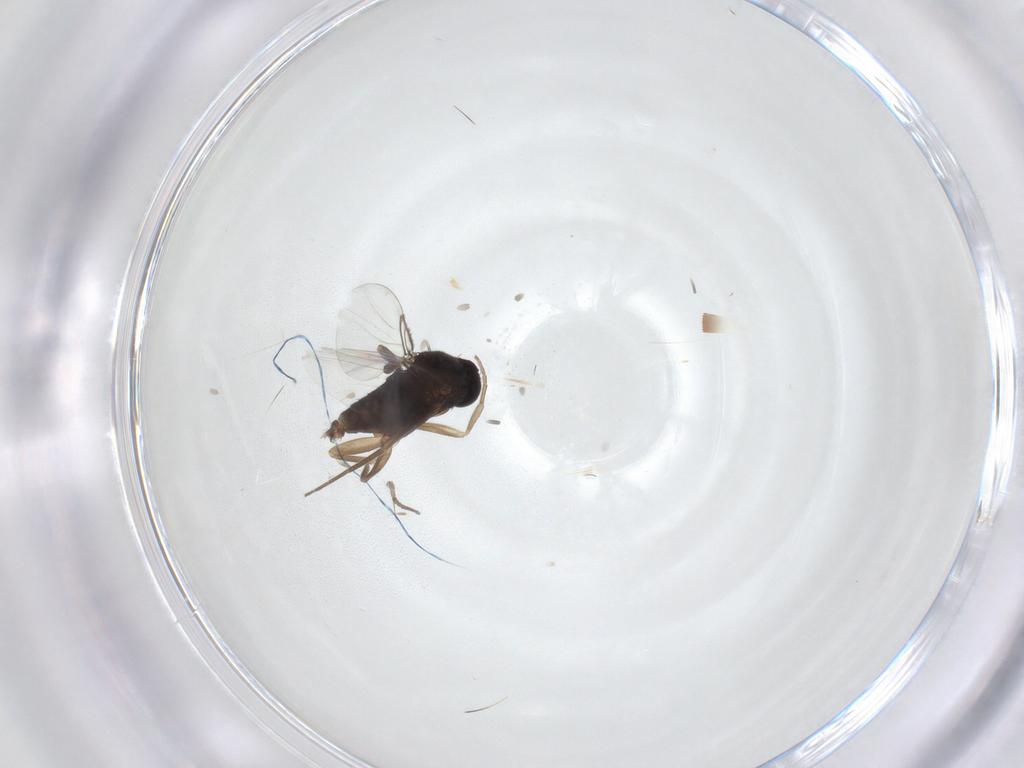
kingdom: Animalia
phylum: Arthropoda
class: Insecta
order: Diptera
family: Phoridae
